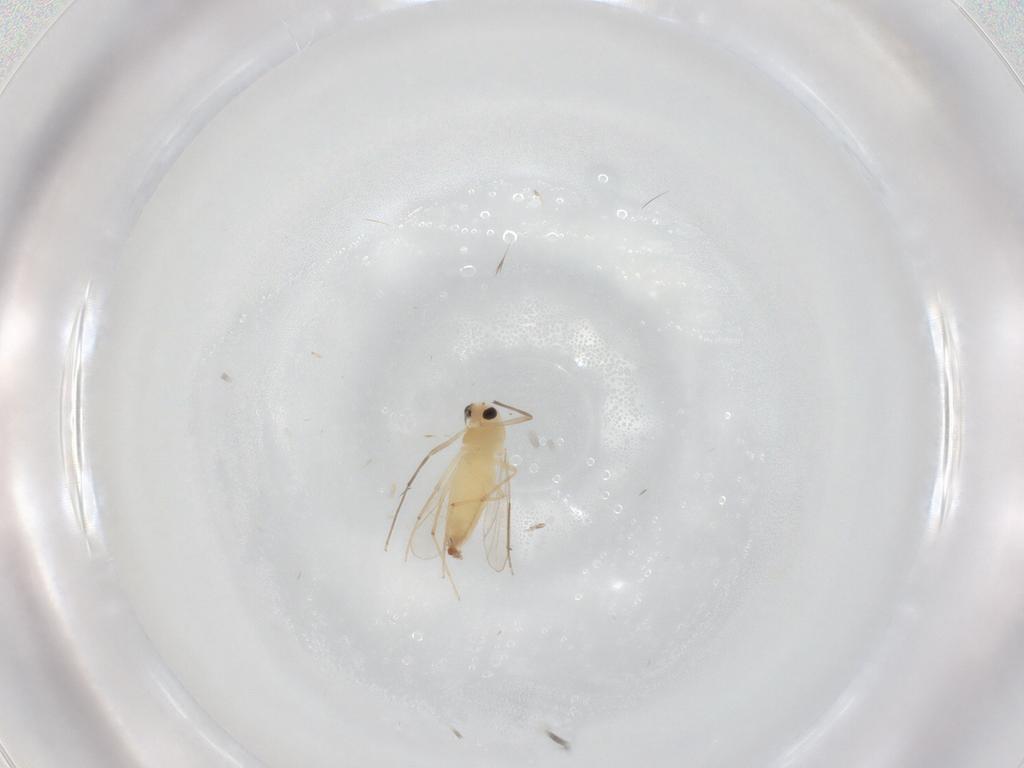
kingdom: Animalia
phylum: Arthropoda
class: Insecta
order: Diptera
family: Chironomidae
